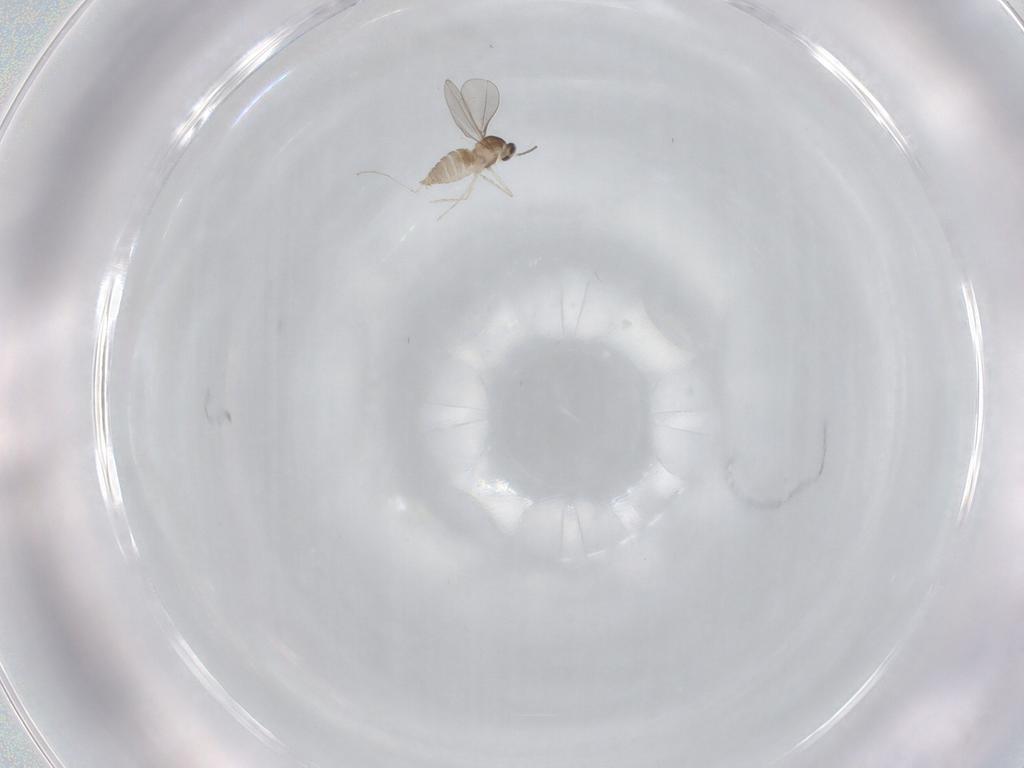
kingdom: Animalia
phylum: Arthropoda
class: Insecta
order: Diptera
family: Cecidomyiidae
